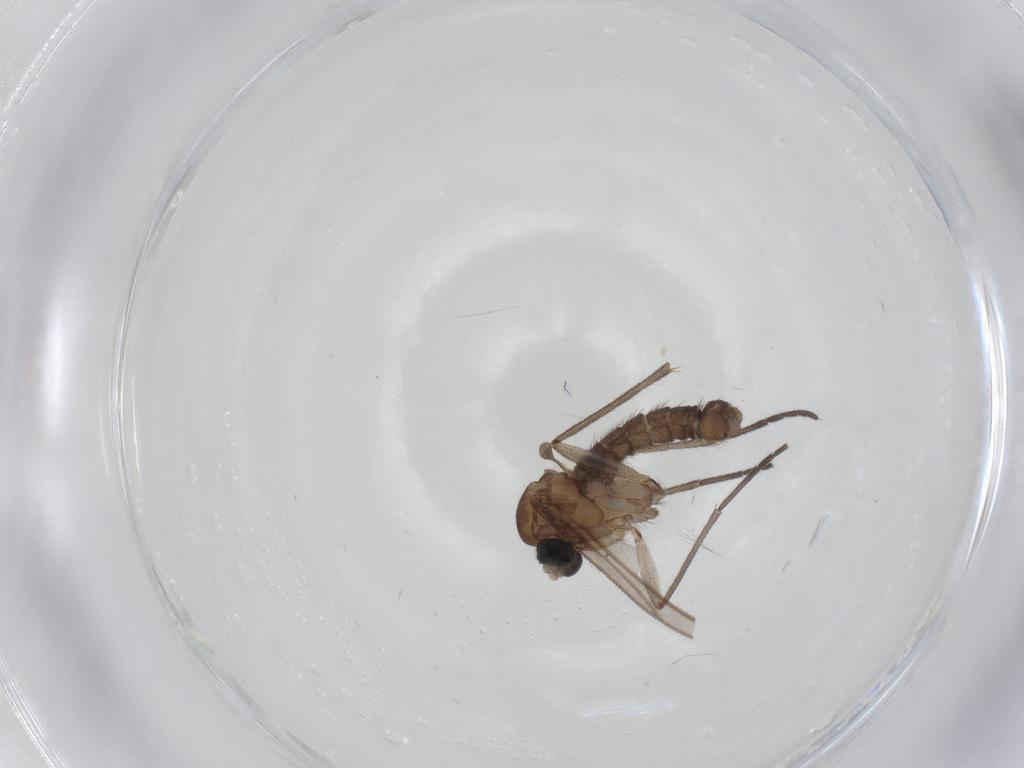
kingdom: Animalia
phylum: Arthropoda
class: Insecta
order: Diptera
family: Sciaridae
